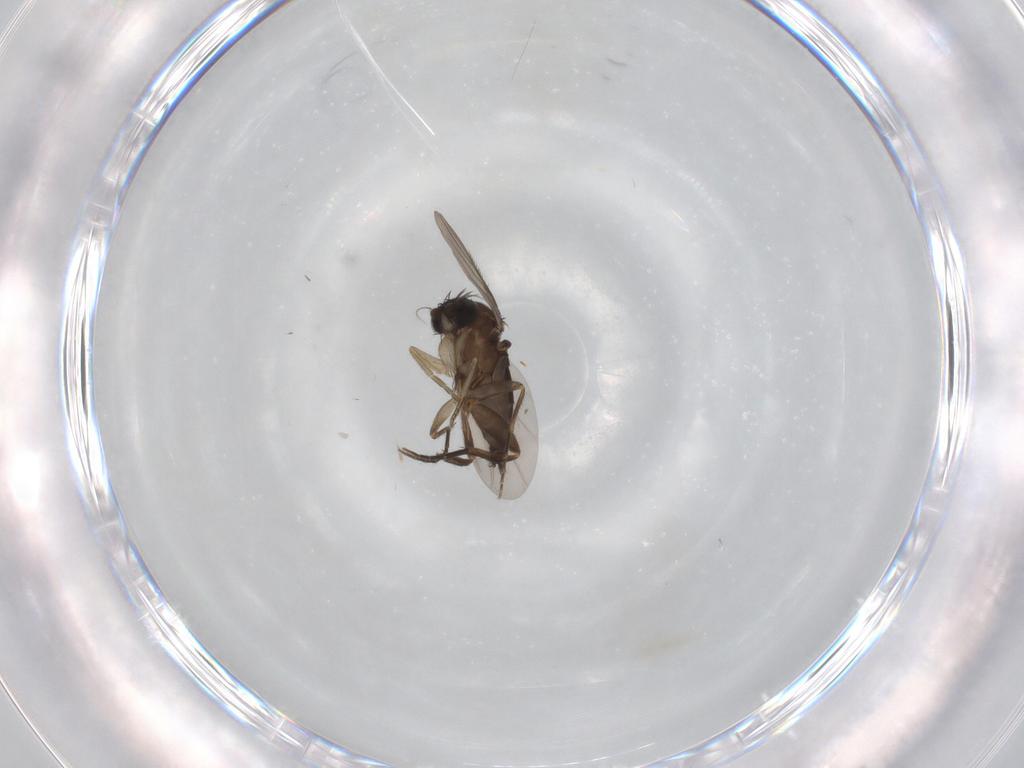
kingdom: Animalia
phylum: Arthropoda
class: Insecta
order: Diptera
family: Phoridae
